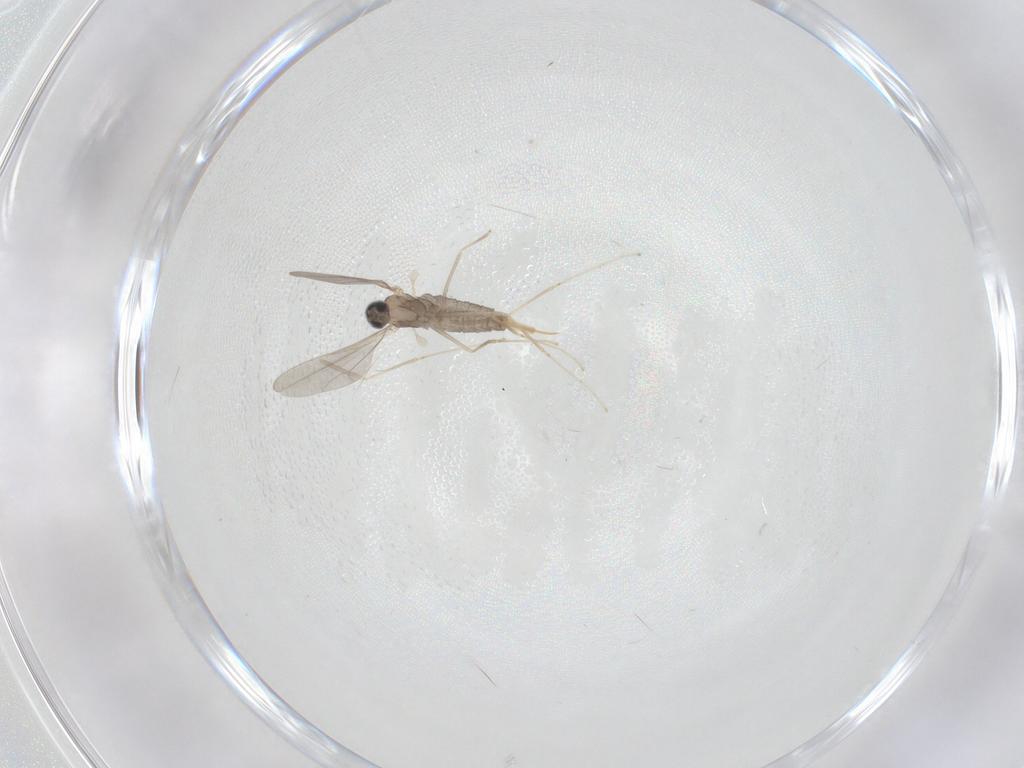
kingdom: Animalia
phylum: Arthropoda
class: Insecta
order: Diptera
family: Cecidomyiidae
